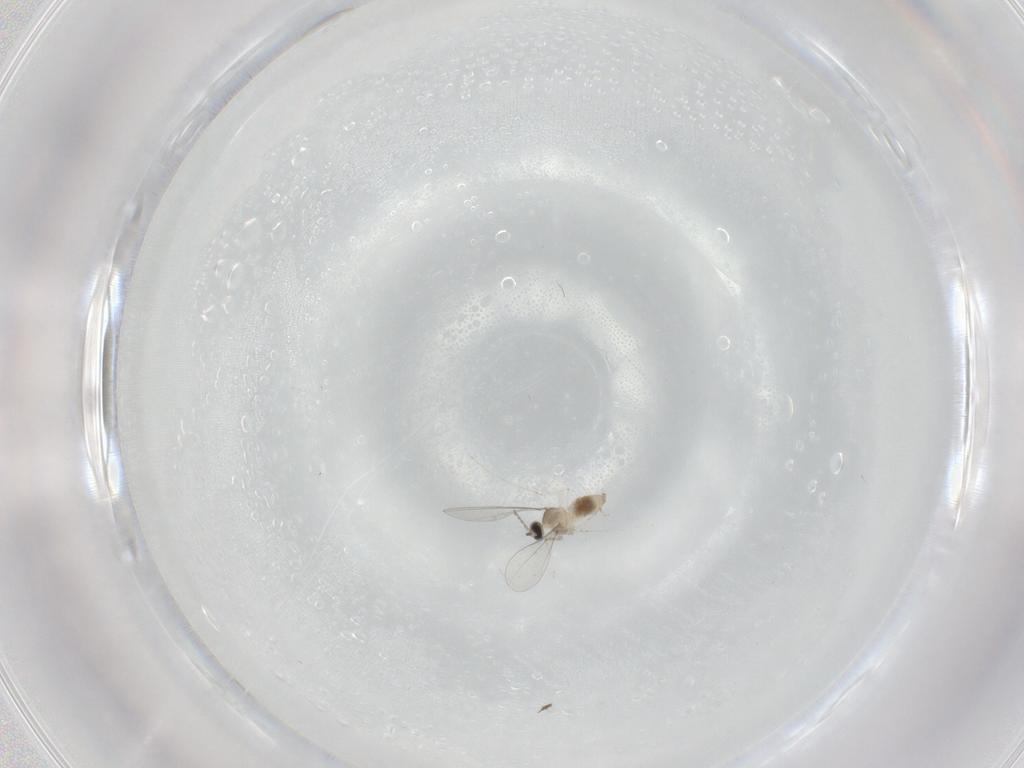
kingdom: Animalia
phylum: Arthropoda
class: Insecta
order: Diptera
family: Cecidomyiidae
